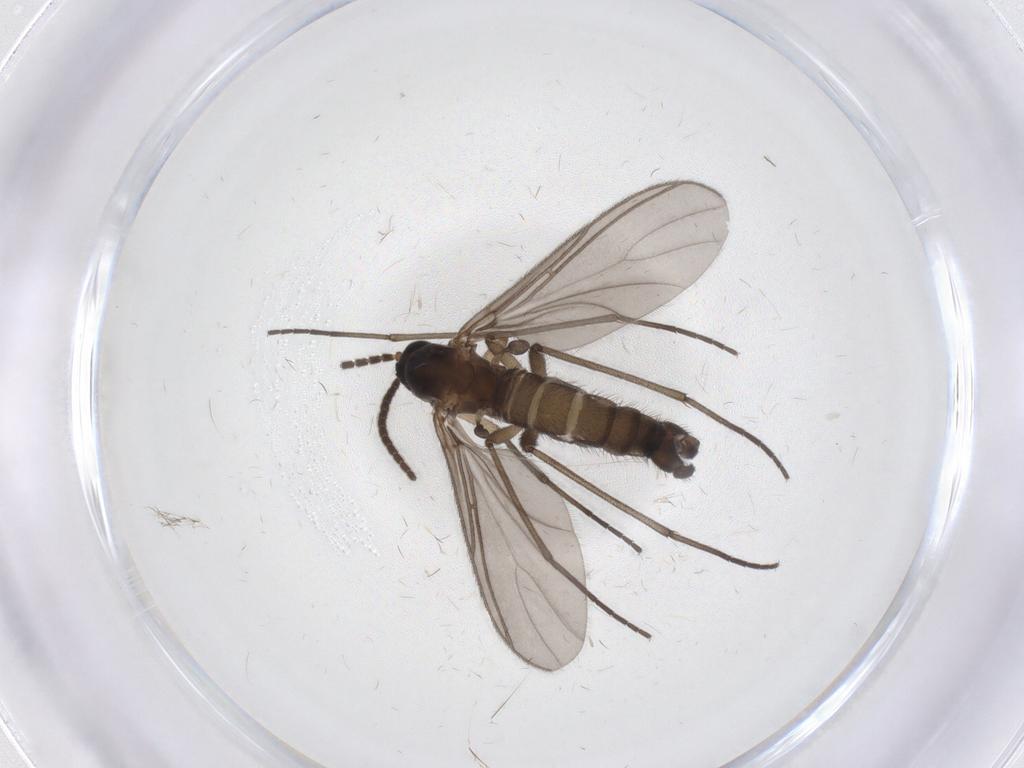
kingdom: Animalia
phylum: Arthropoda
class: Insecta
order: Diptera
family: Sciaridae
